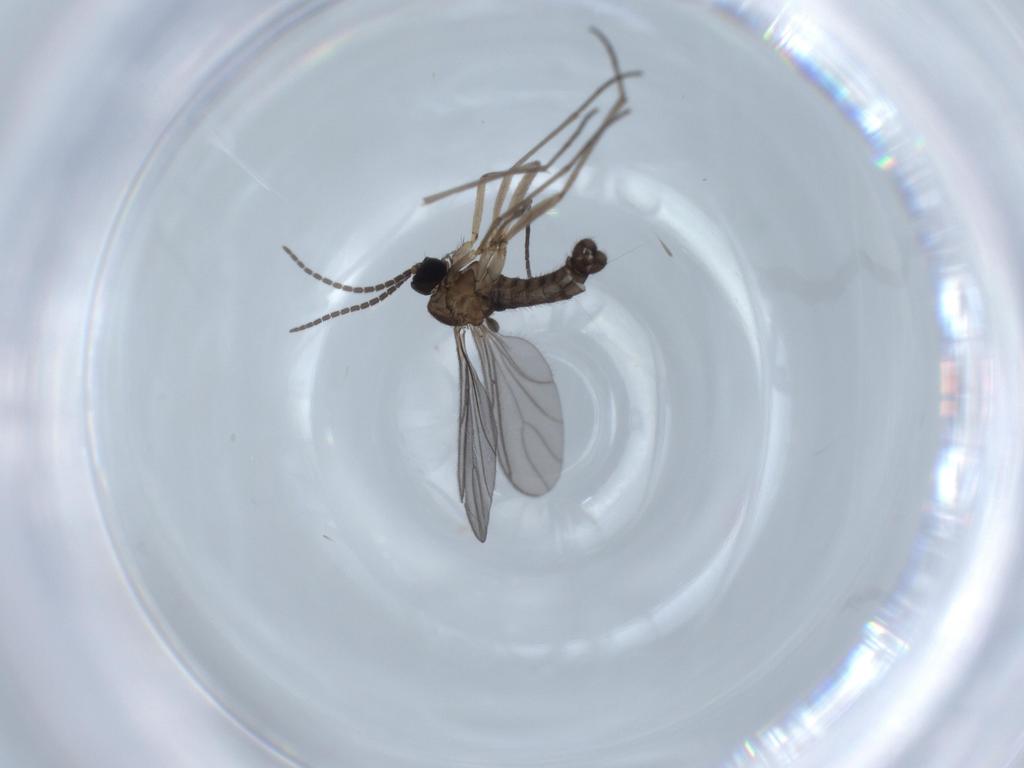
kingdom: Animalia
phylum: Arthropoda
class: Insecta
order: Diptera
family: Sciaridae
